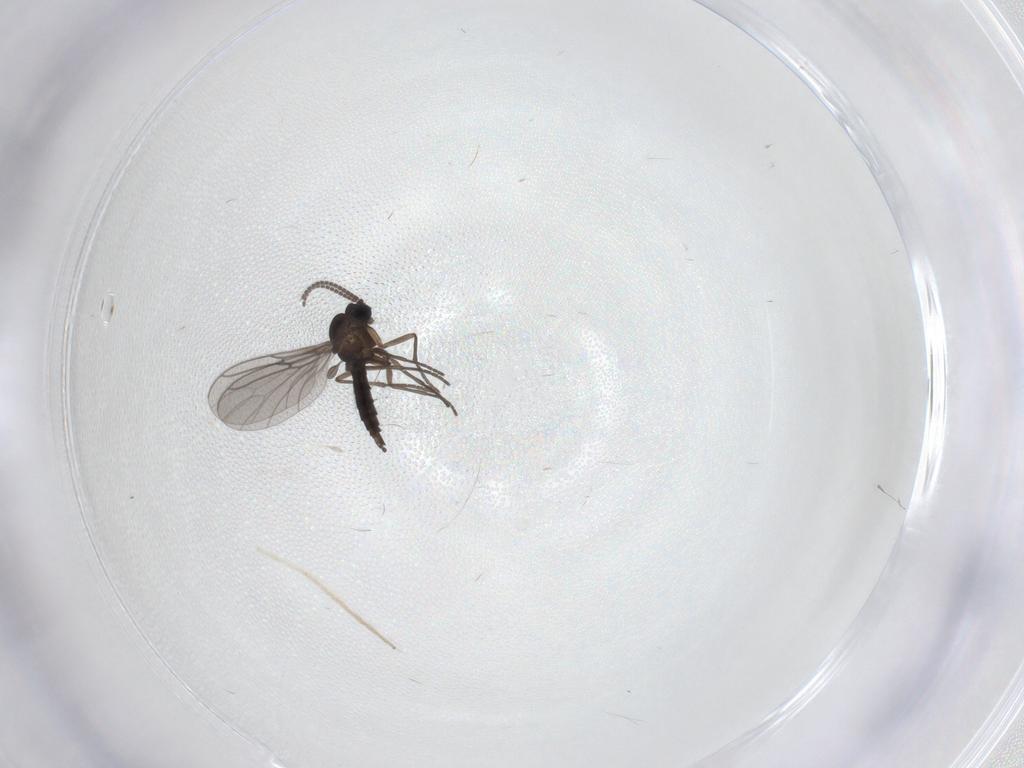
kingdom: Animalia
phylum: Arthropoda
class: Insecta
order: Diptera
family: Sciaridae
